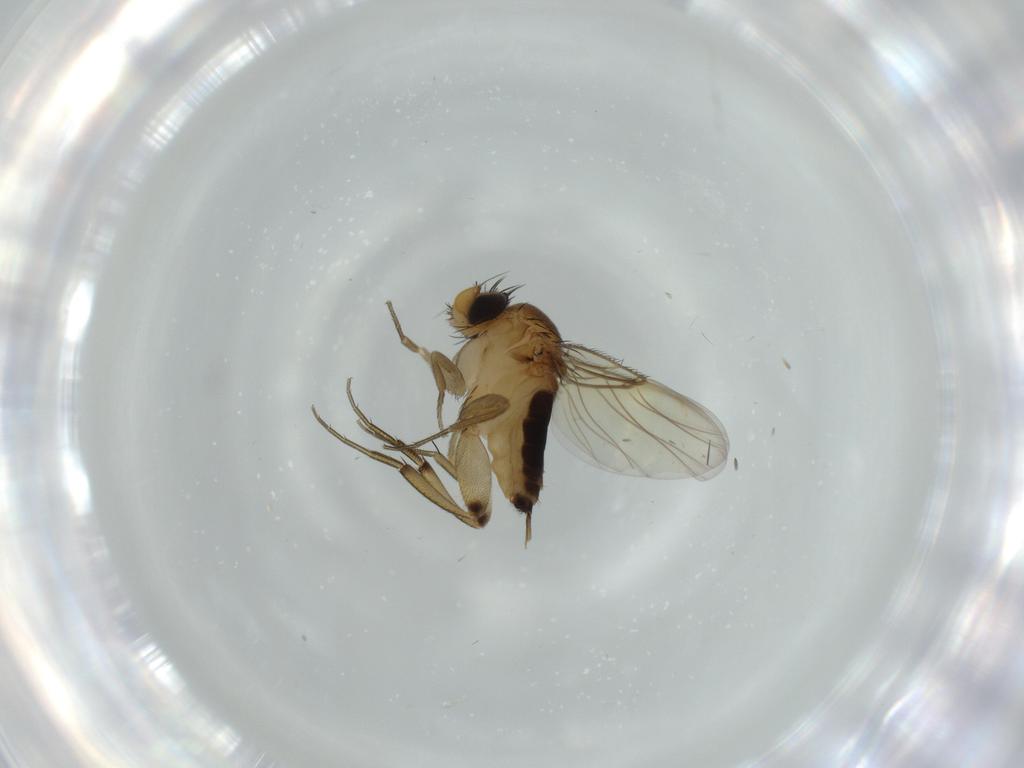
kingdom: Animalia
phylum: Arthropoda
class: Insecta
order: Diptera
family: Phoridae
